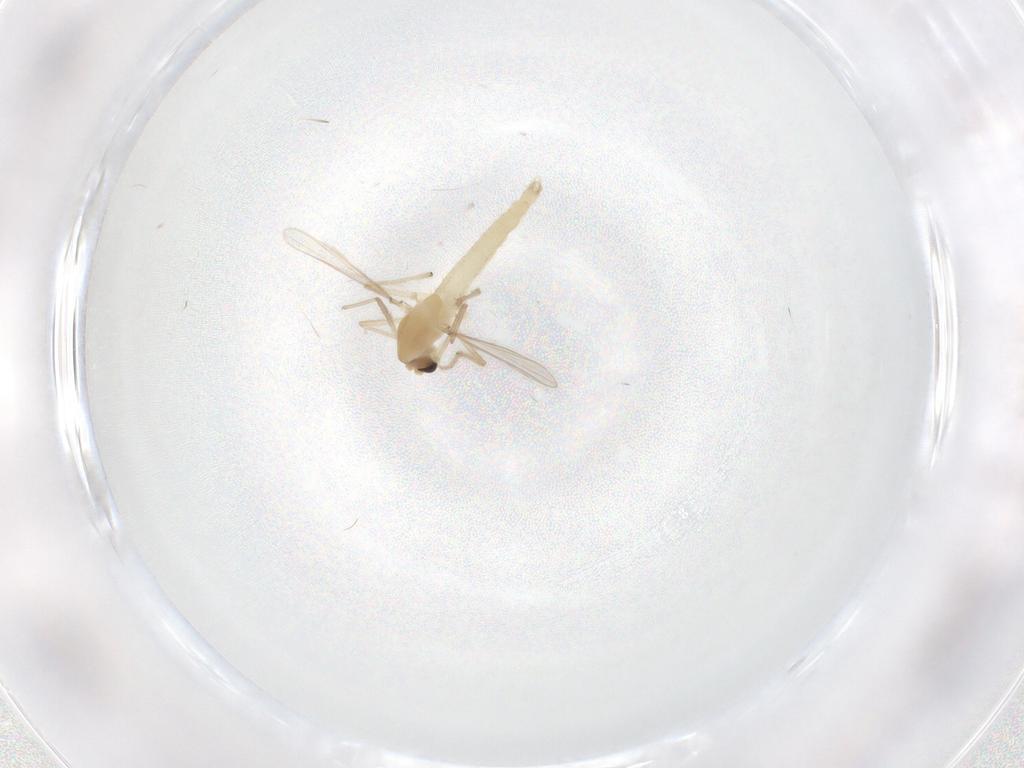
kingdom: Animalia
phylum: Arthropoda
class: Insecta
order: Diptera
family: Chironomidae
